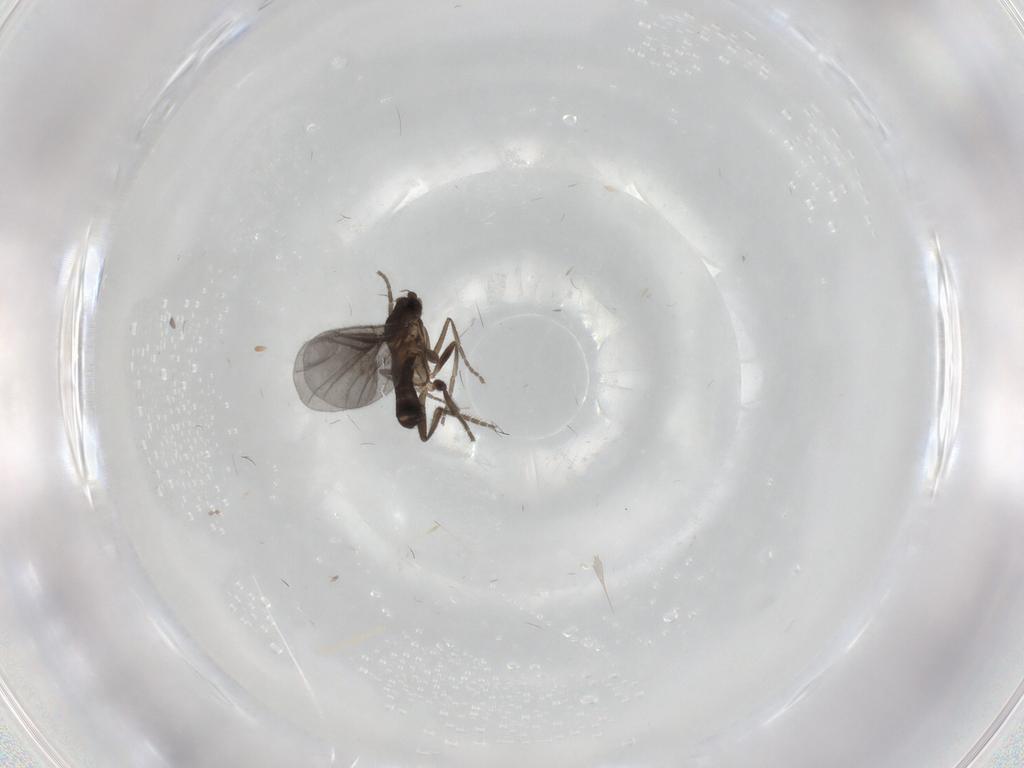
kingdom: Animalia
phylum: Arthropoda
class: Insecta
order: Diptera
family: Phoridae
